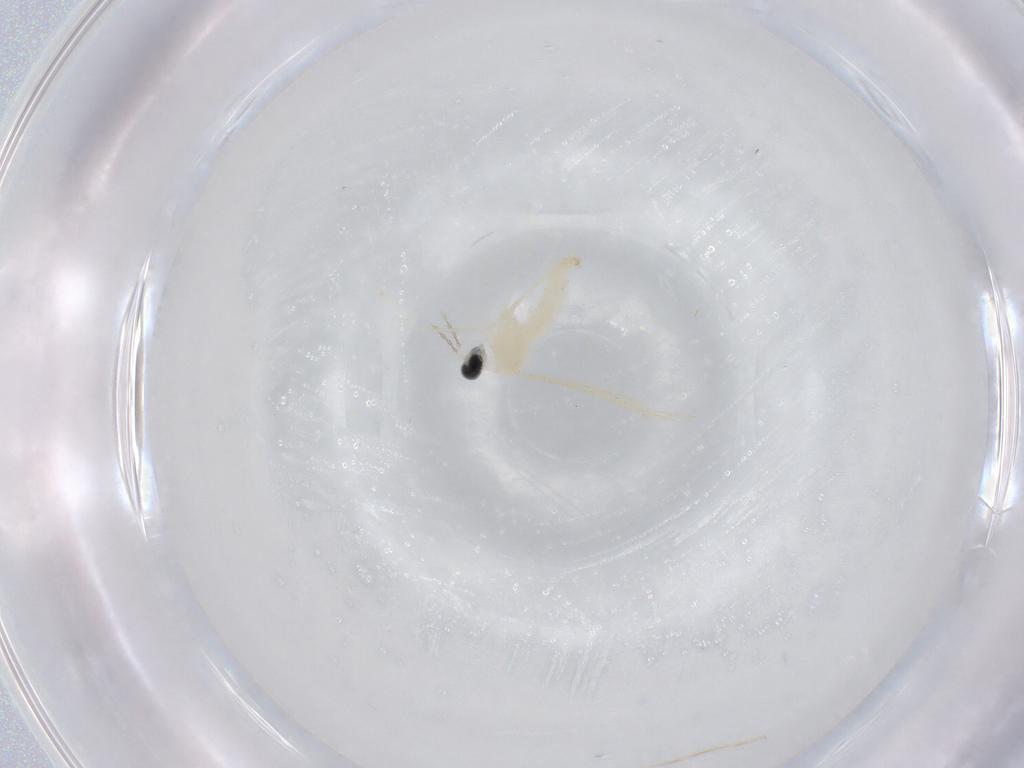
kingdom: Animalia
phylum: Arthropoda
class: Insecta
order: Diptera
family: Cecidomyiidae
